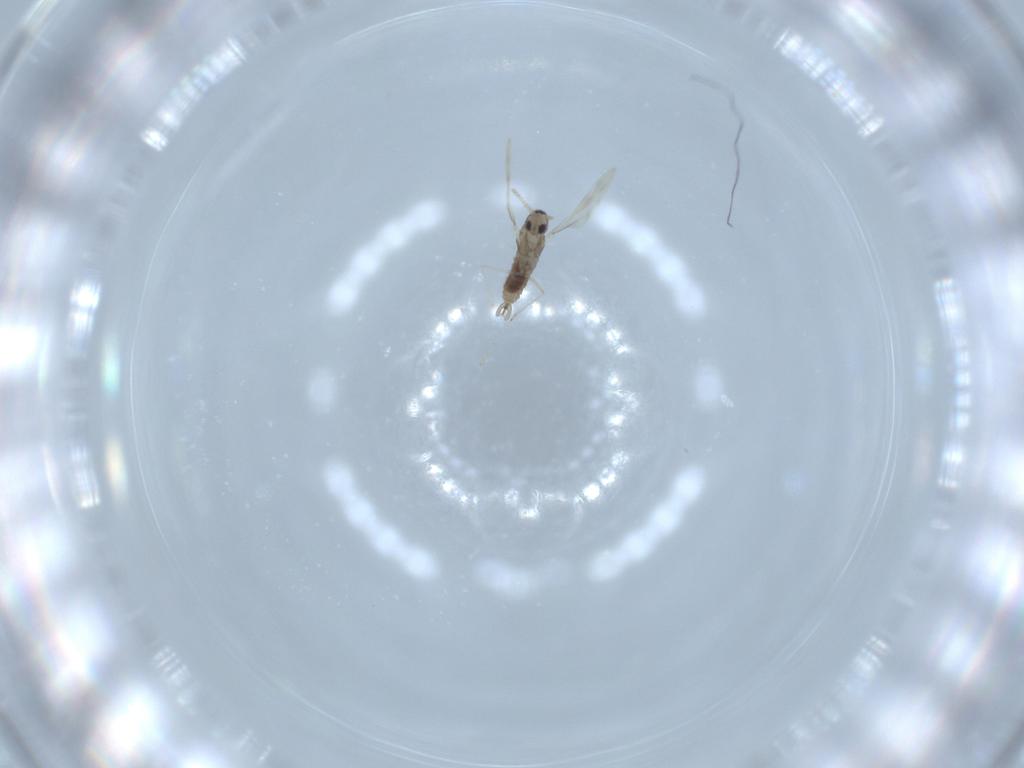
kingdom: Animalia
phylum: Arthropoda
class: Insecta
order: Diptera
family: Cecidomyiidae
